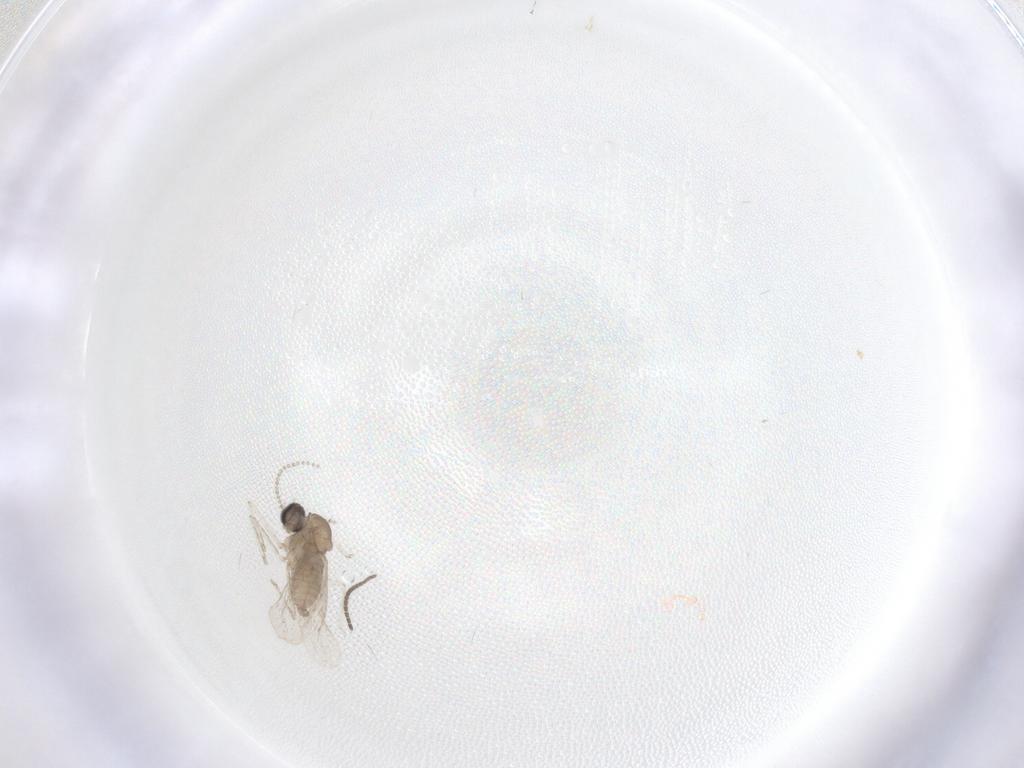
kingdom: Animalia
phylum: Arthropoda
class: Insecta
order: Diptera
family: Cecidomyiidae
